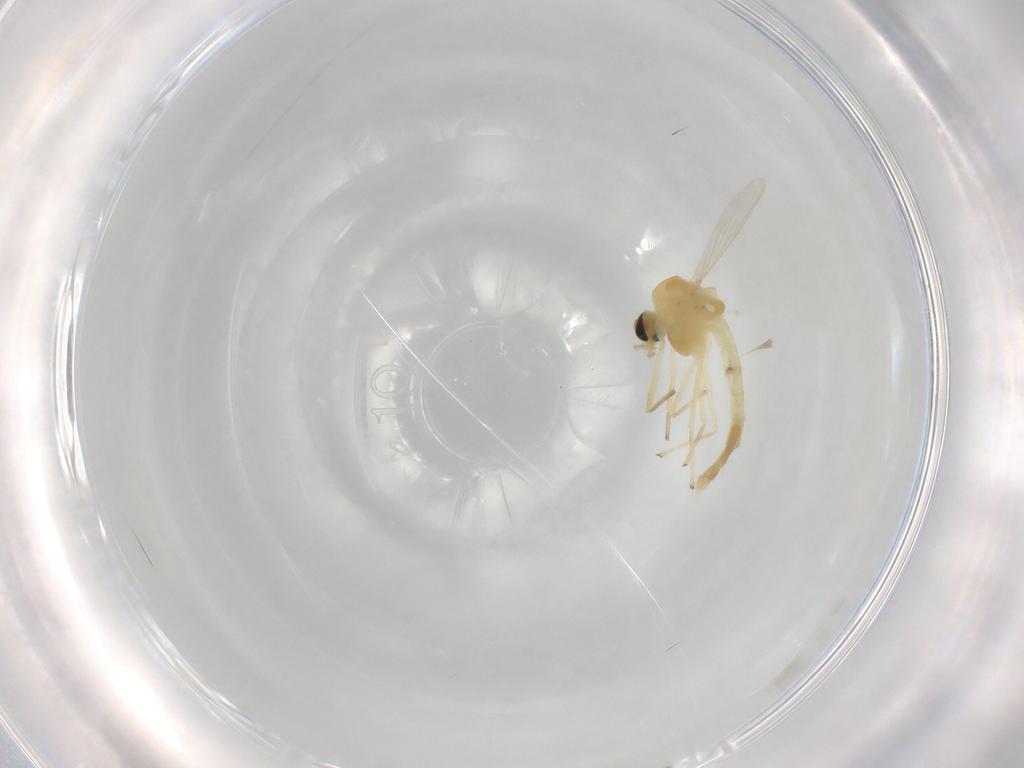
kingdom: Animalia
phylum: Arthropoda
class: Insecta
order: Diptera
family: Chironomidae
